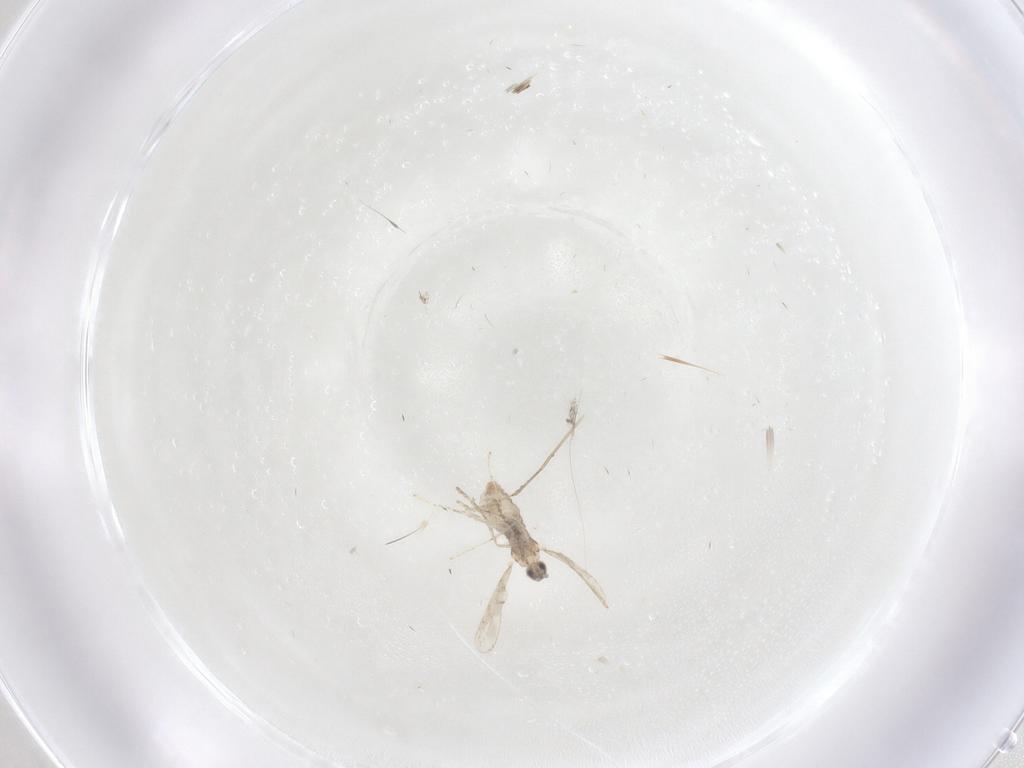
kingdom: Animalia
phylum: Arthropoda
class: Insecta
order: Diptera
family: Cecidomyiidae
